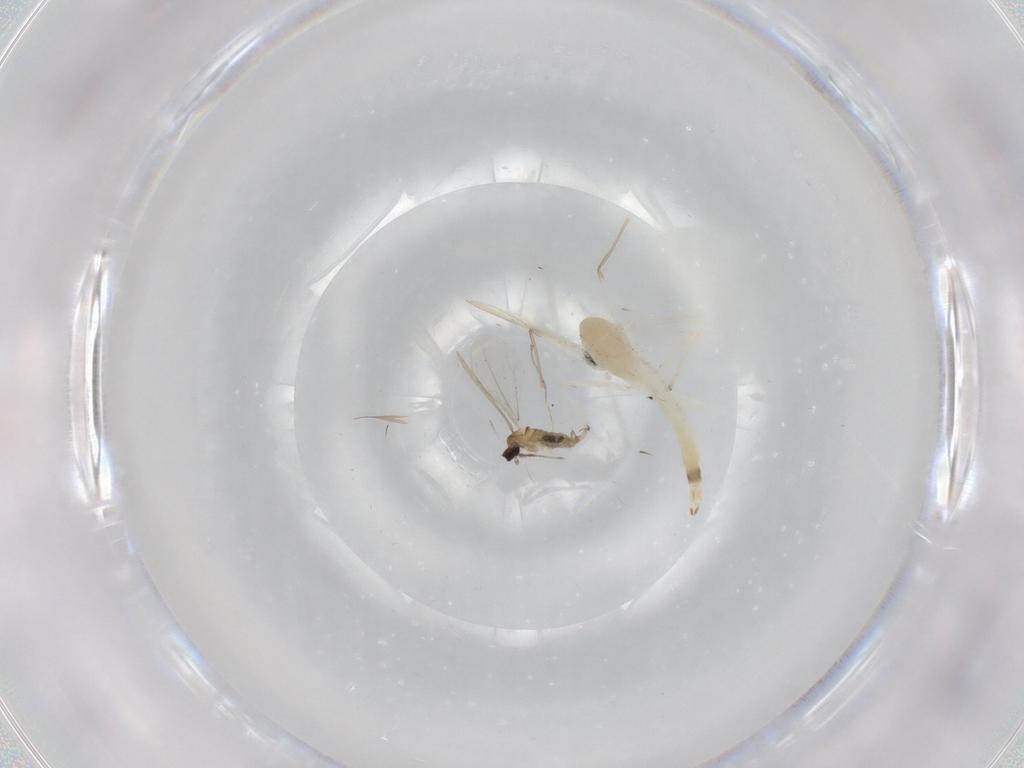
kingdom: Animalia
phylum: Arthropoda
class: Insecta
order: Diptera
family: Cecidomyiidae
